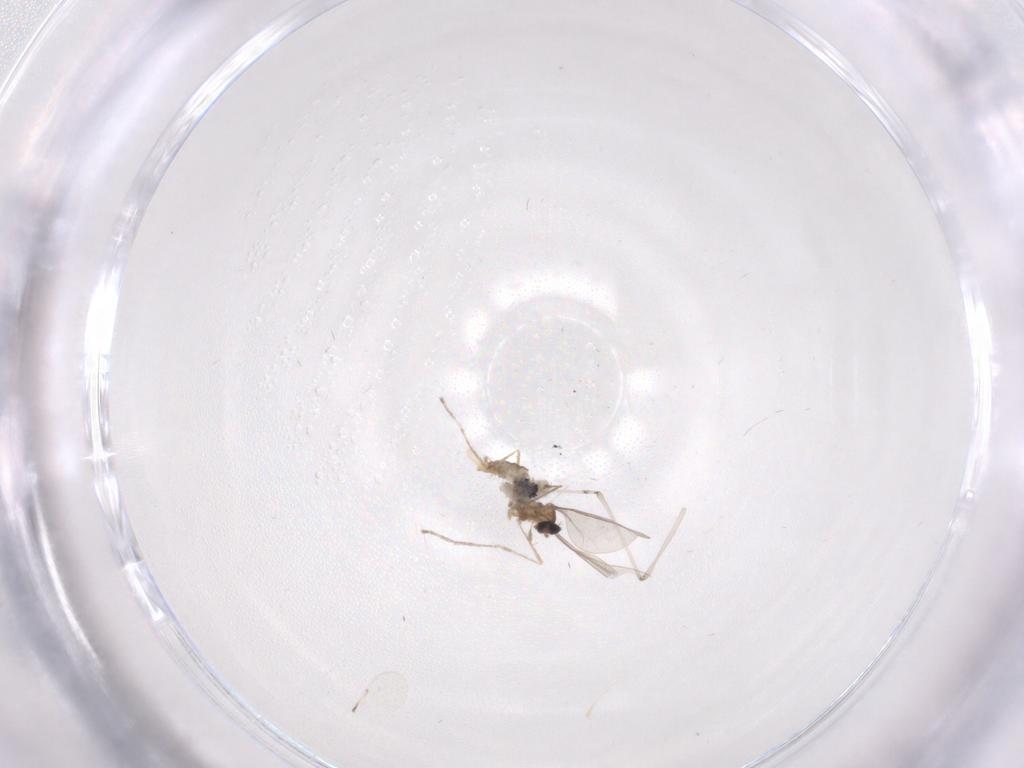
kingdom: Animalia
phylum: Arthropoda
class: Insecta
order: Diptera
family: Cecidomyiidae
